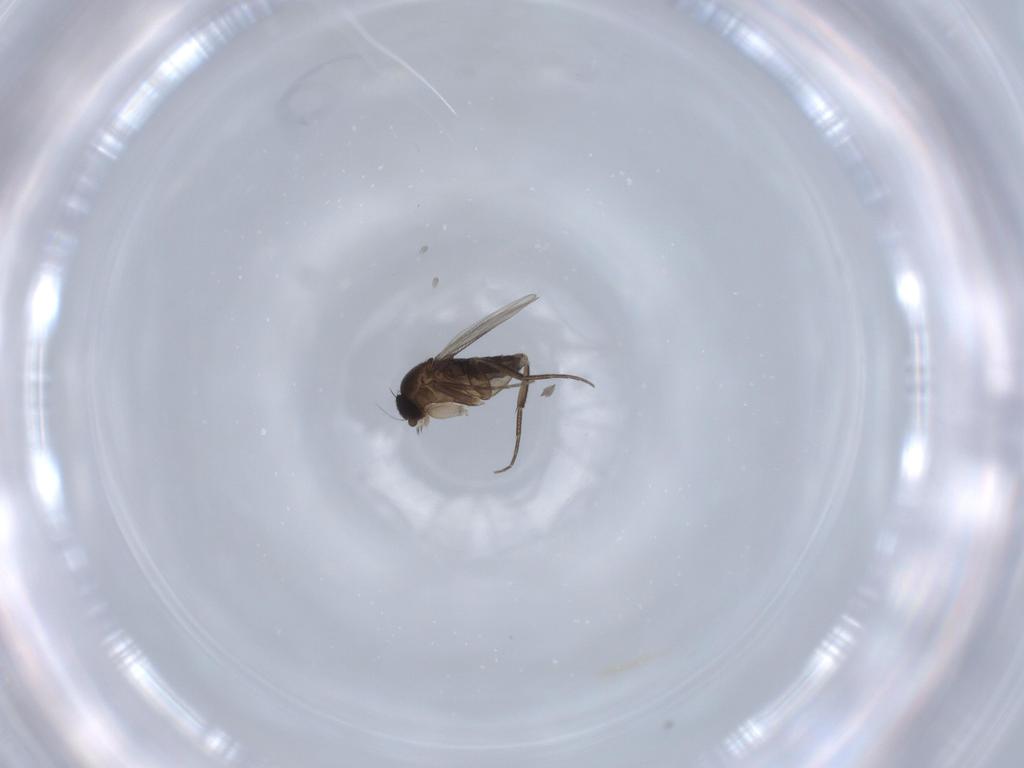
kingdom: Animalia
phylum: Arthropoda
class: Insecta
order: Diptera
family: Phoridae
